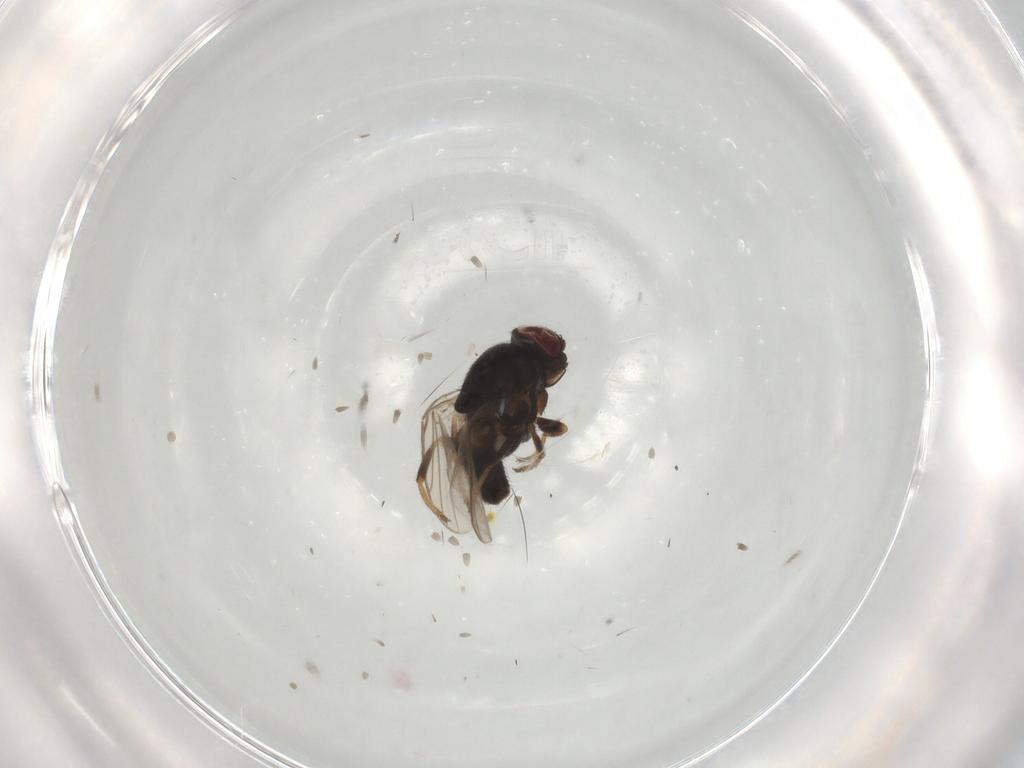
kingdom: Animalia
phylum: Arthropoda
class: Insecta
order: Diptera
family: Chloropidae
